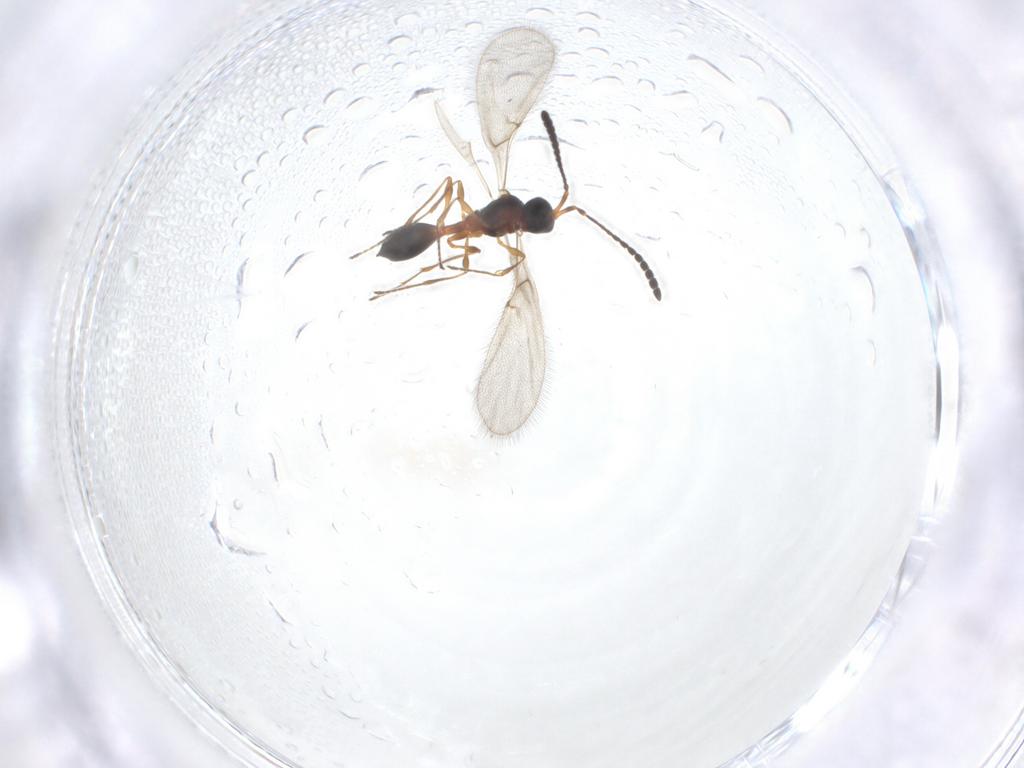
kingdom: Animalia
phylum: Arthropoda
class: Insecta
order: Hymenoptera
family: Diapriidae
